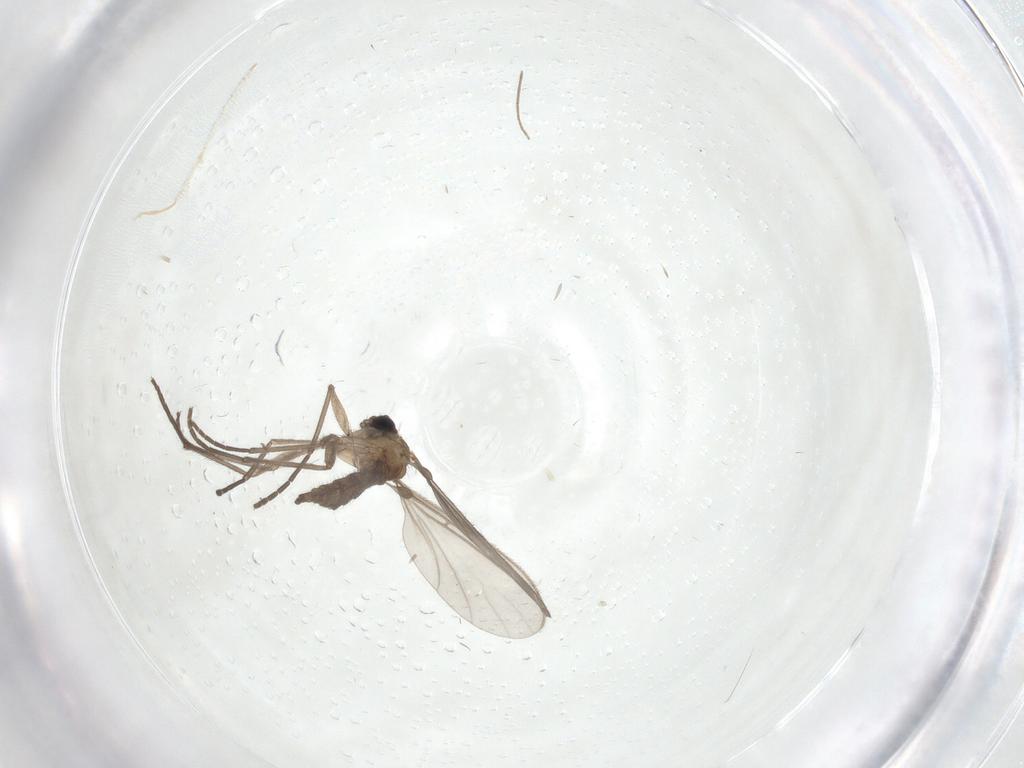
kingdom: Animalia
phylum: Arthropoda
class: Insecta
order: Diptera
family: Sciaridae
